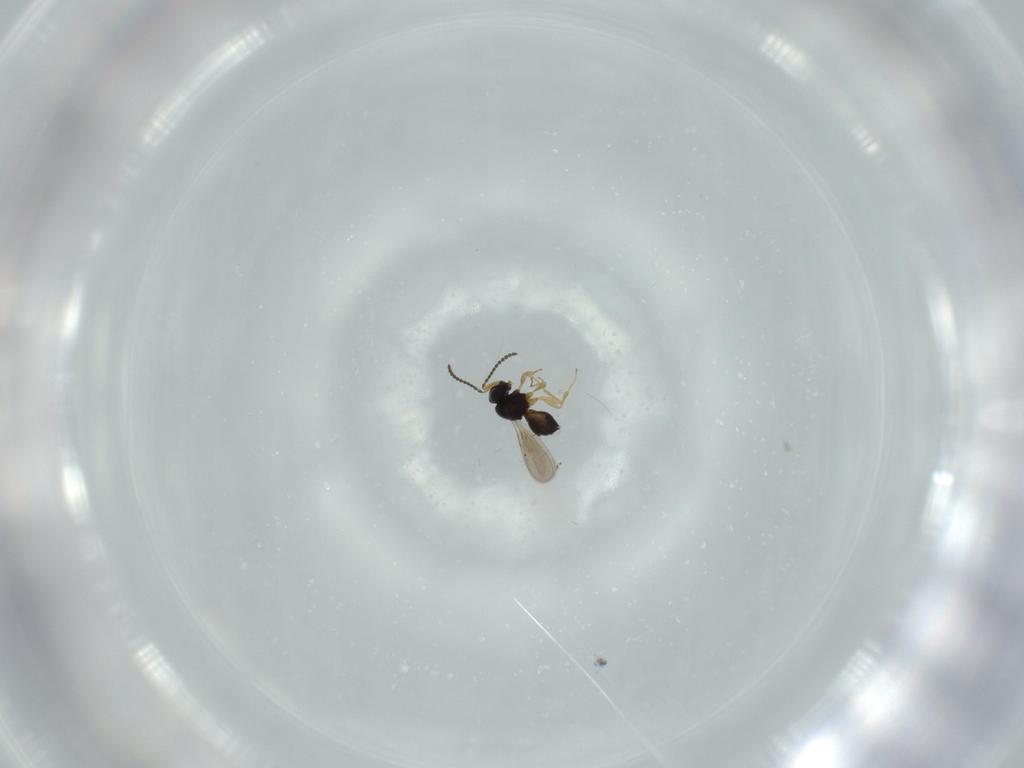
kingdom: Animalia
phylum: Arthropoda
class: Insecta
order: Hymenoptera
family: Scelionidae
